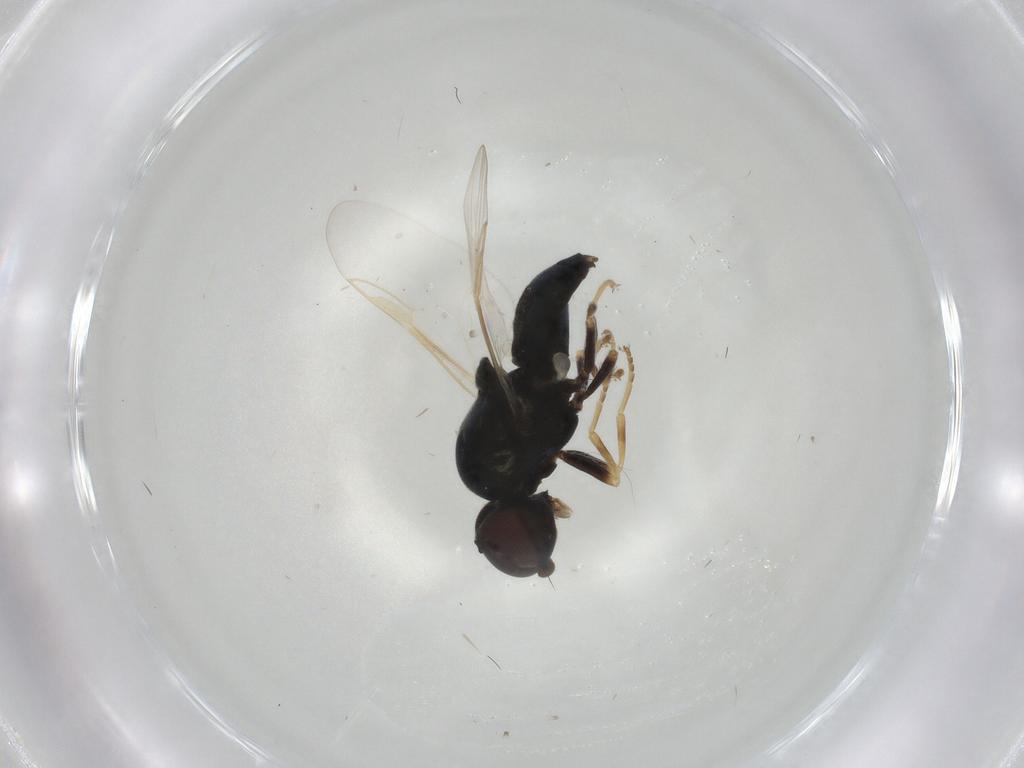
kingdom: Animalia
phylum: Arthropoda
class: Insecta
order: Diptera
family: Stratiomyidae
